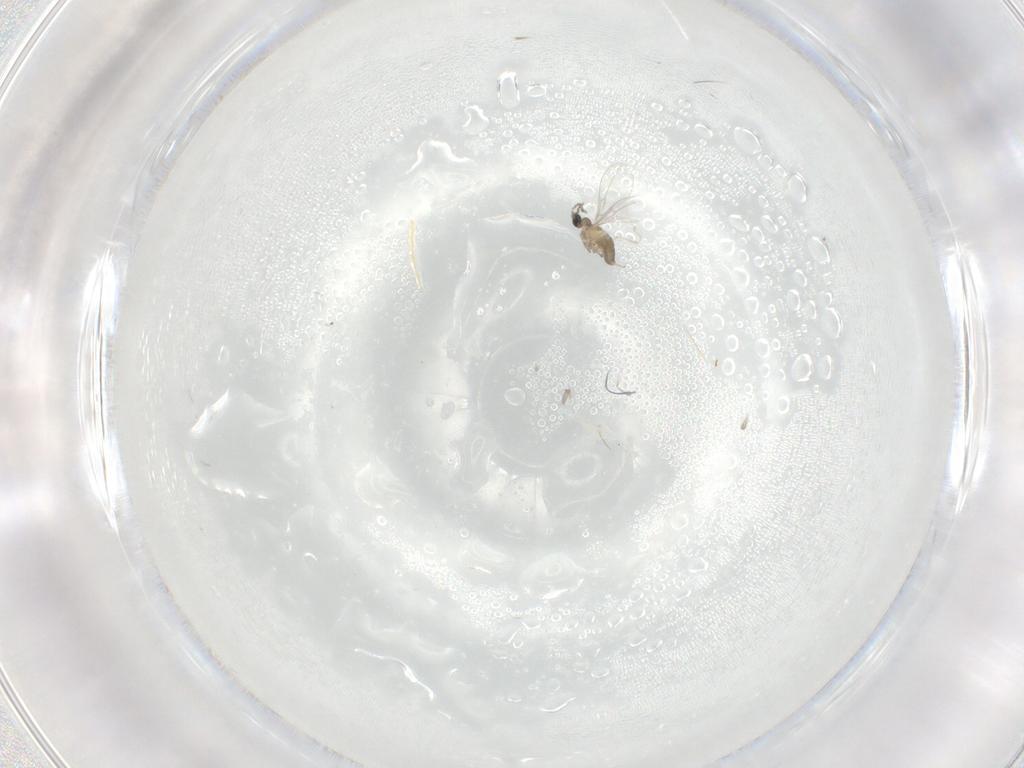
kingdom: Animalia
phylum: Arthropoda
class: Insecta
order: Diptera
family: Cecidomyiidae
